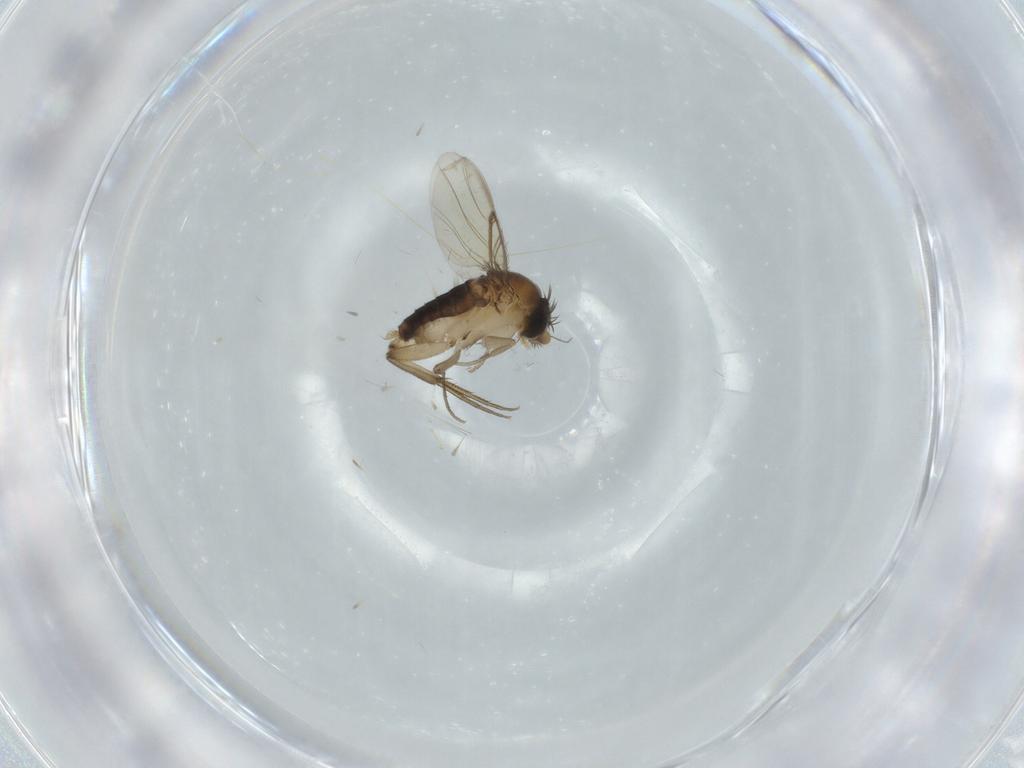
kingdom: Animalia
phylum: Arthropoda
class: Insecta
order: Diptera
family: Phoridae
